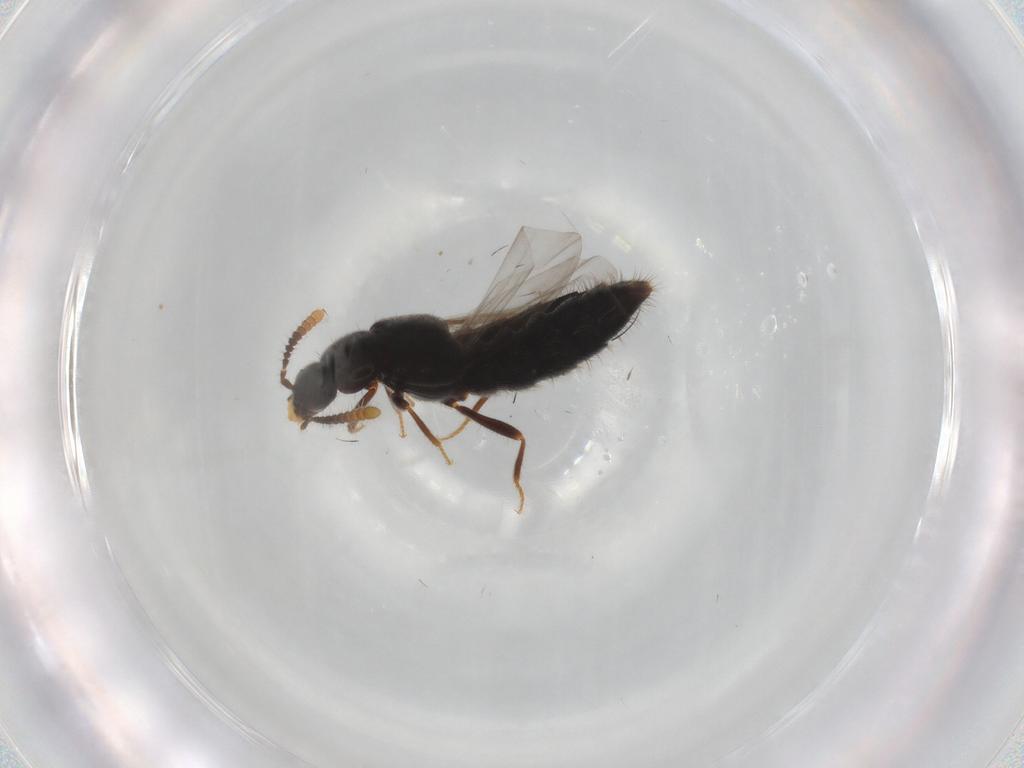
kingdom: Animalia
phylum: Arthropoda
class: Insecta
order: Coleoptera
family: Staphylinidae
